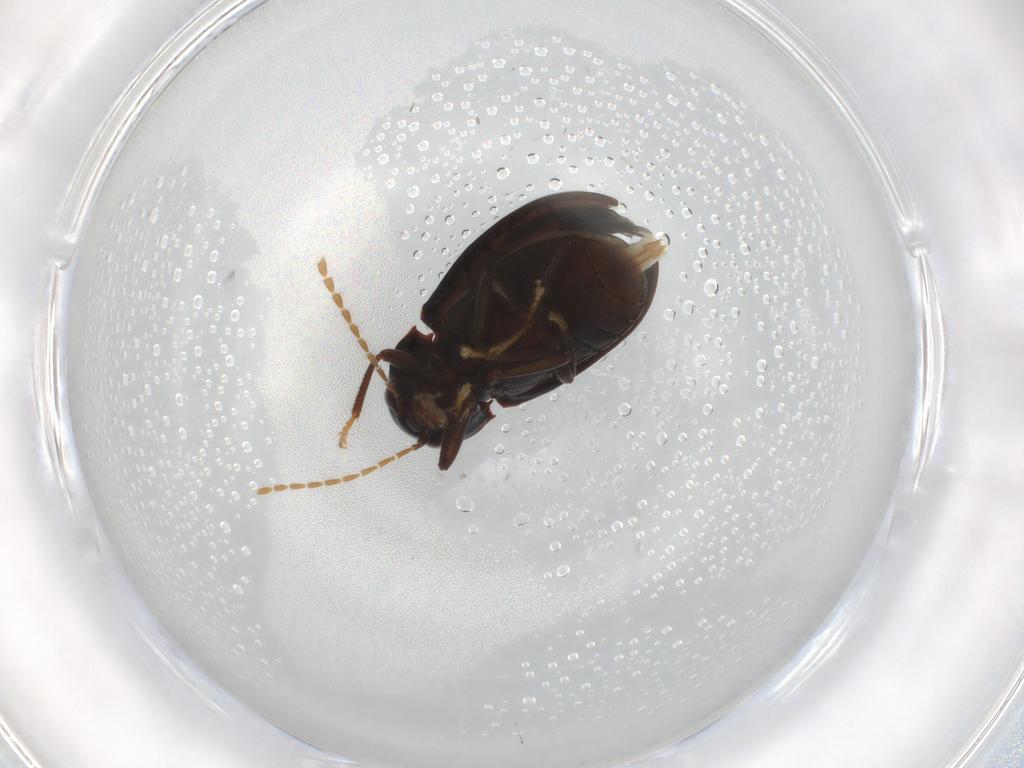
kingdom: Animalia
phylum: Arthropoda
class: Insecta
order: Coleoptera
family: Ptilodactylidae
